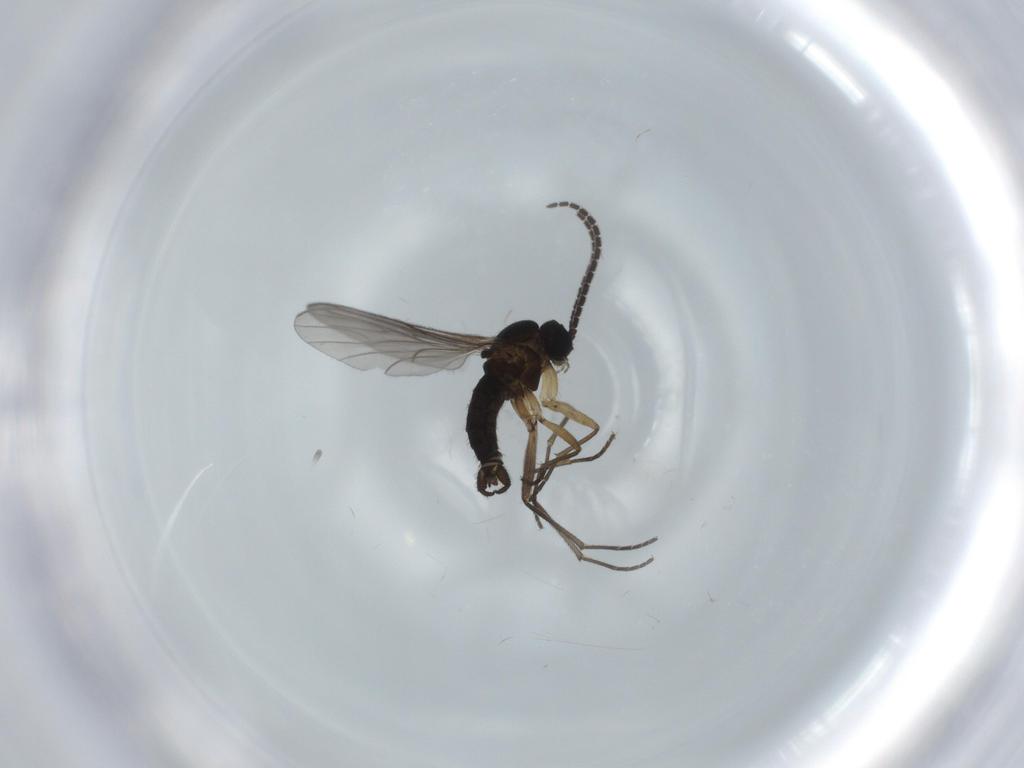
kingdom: Animalia
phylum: Arthropoda
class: Insecta
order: Diptera
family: Sciaridae
